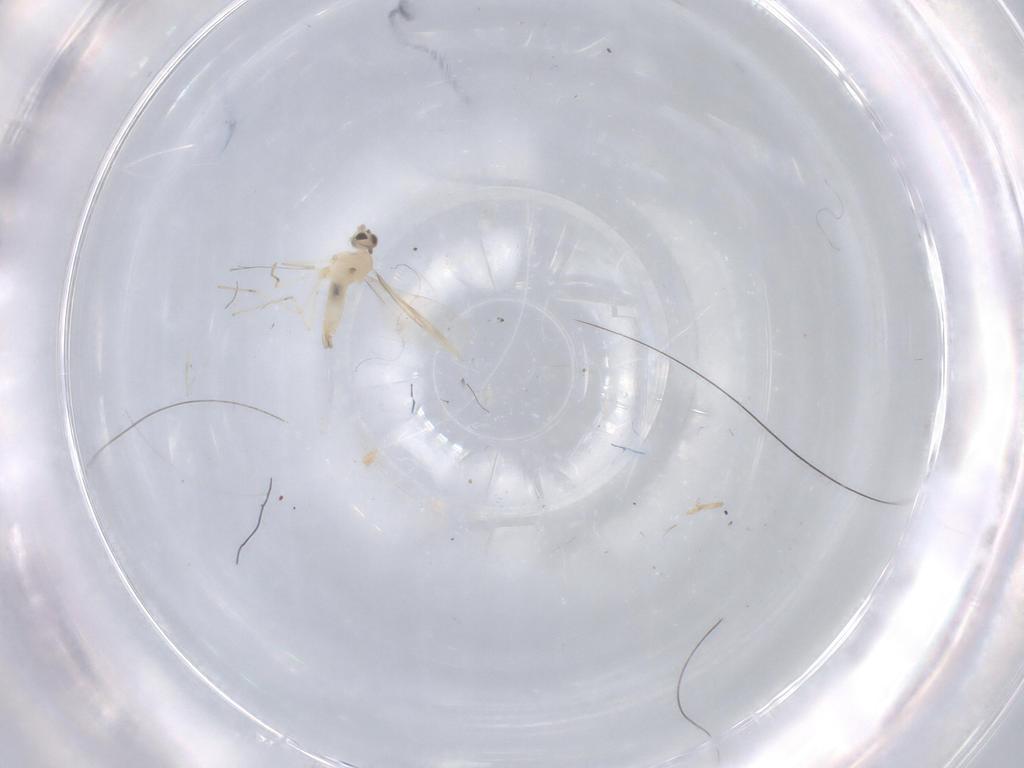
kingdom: Animalia
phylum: Arthropoda
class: Insecta
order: Diptera
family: Cecidomyiidae
